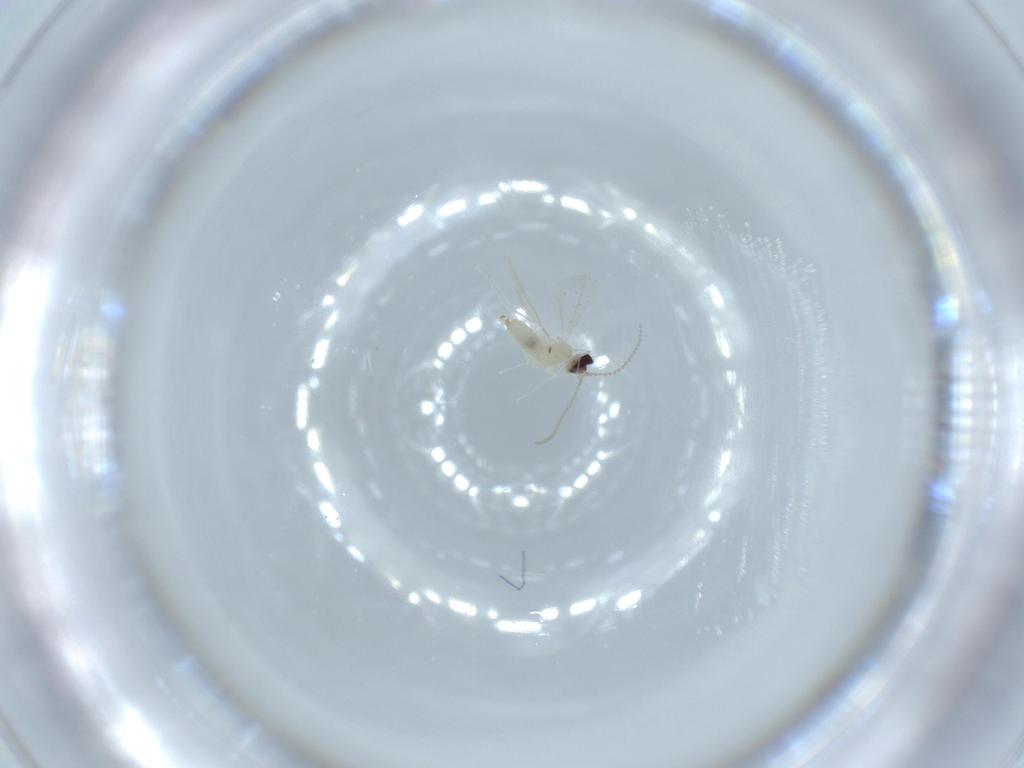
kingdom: Animalia
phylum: Arthropoda
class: Insecta
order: Diptera
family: Cecidomyiidae
